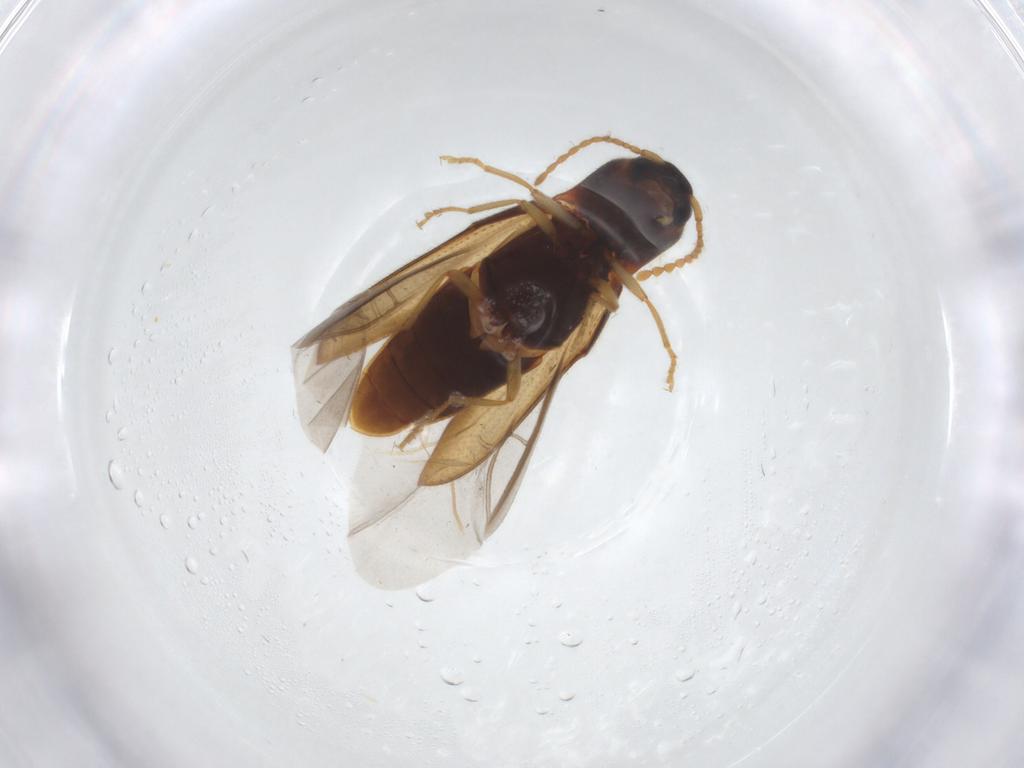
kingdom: Animalia
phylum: Arthropoda
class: Insecta
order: Coleoptera
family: Elateridae
